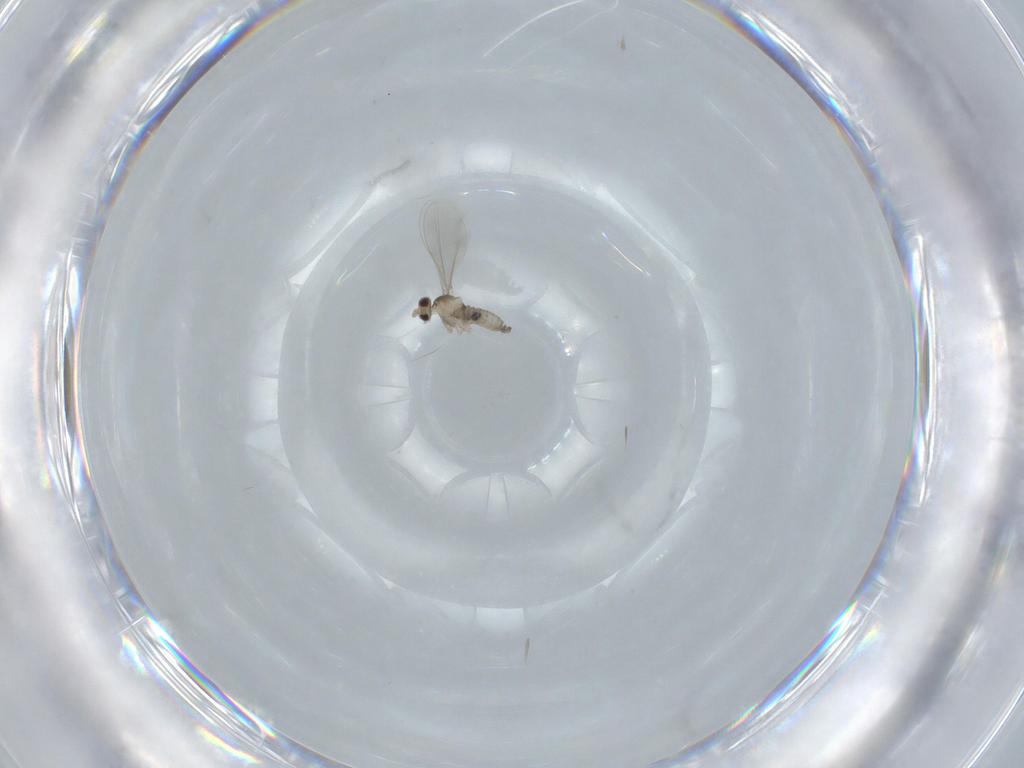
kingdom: Animalia
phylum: Arthropoda
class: Insecta
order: Diptera
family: Cecidomyiidae
